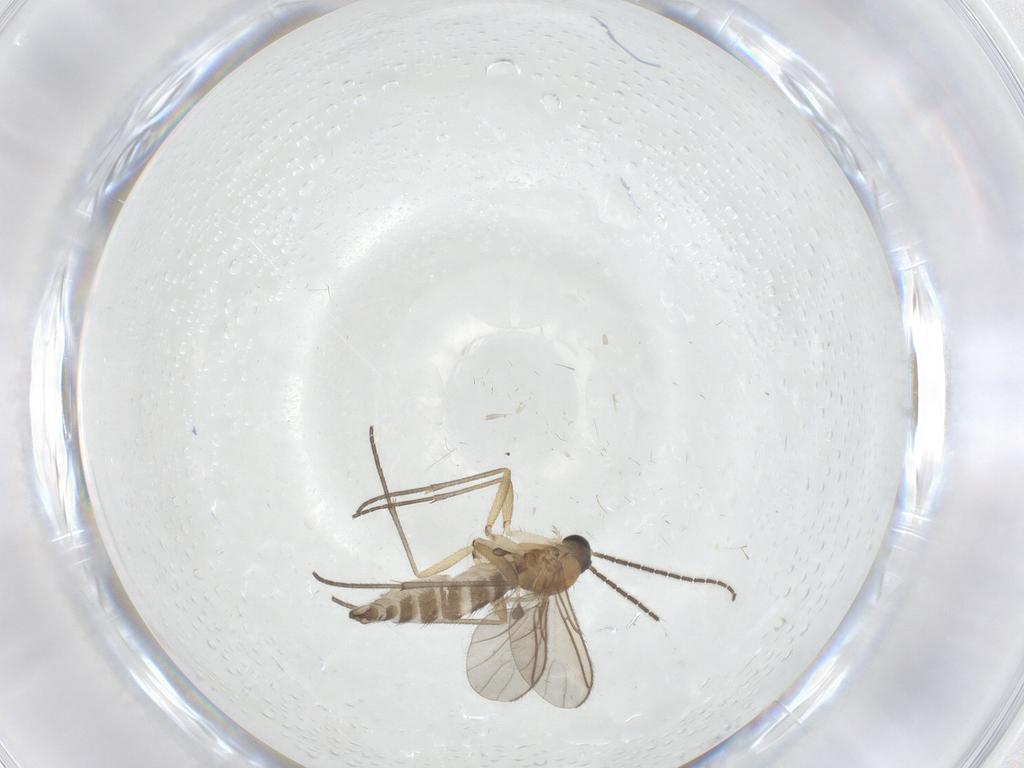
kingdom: Animalia
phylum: Arthropoda
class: Insecta
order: Diptera
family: Sciaridae
